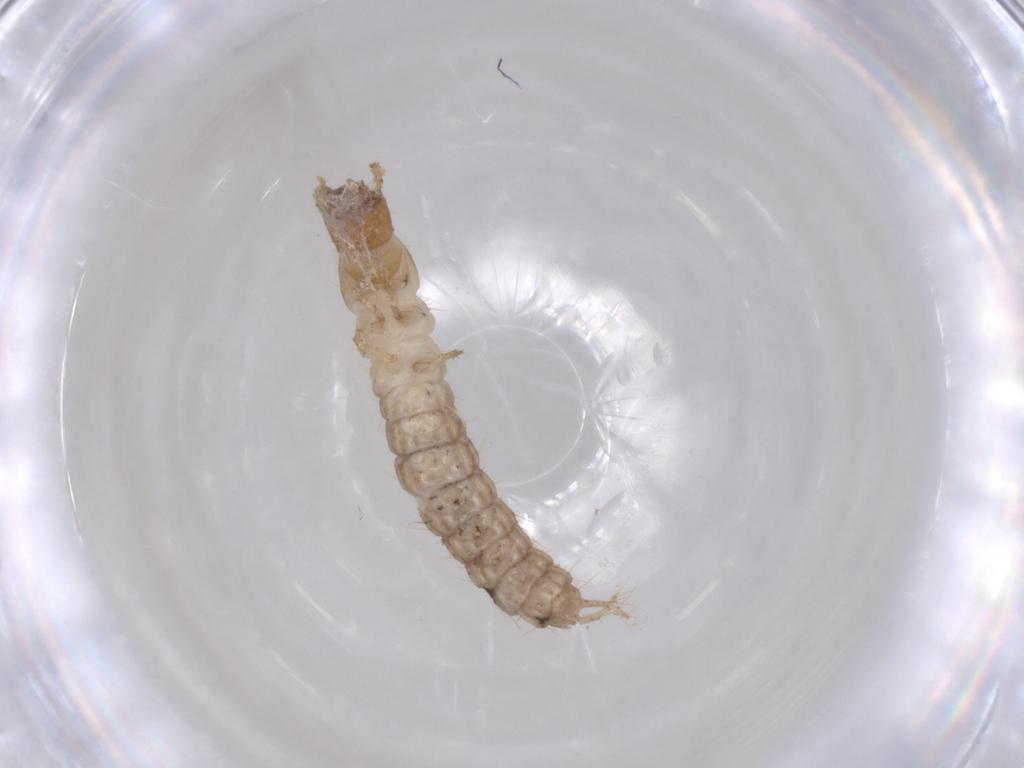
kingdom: Animalia
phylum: Arthropoda
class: Insecta
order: Coleoptera
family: Carabidae
